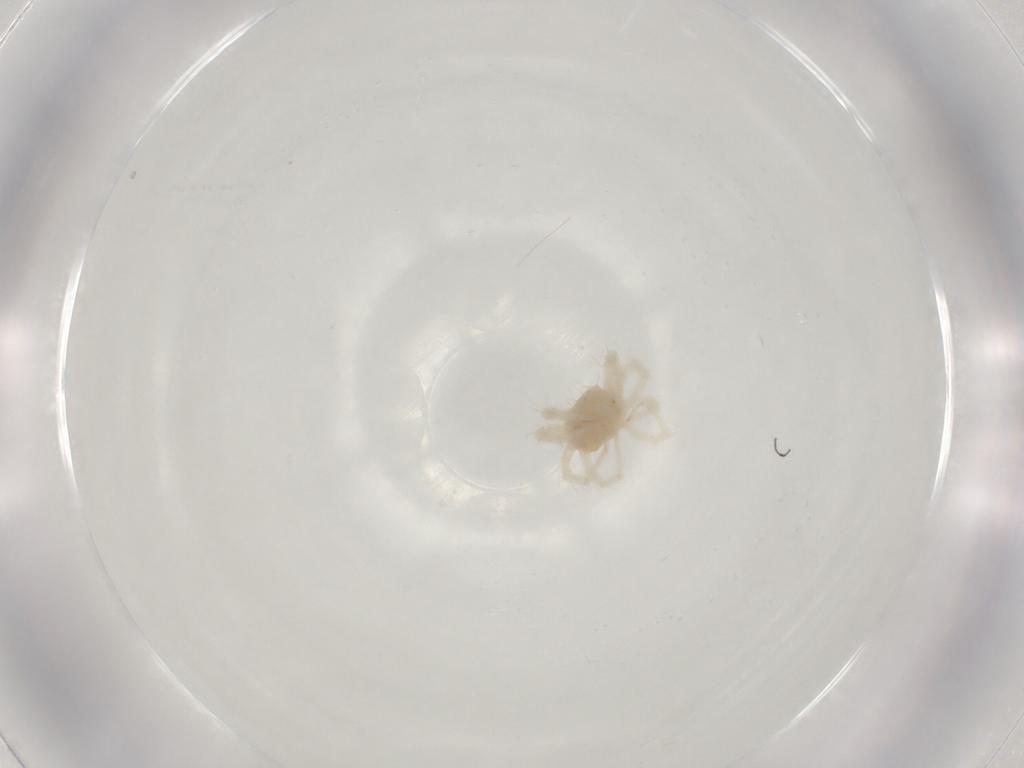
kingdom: Animalia
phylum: Arthropoda
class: Arachnida
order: Trombidiformes
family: Anystidae
